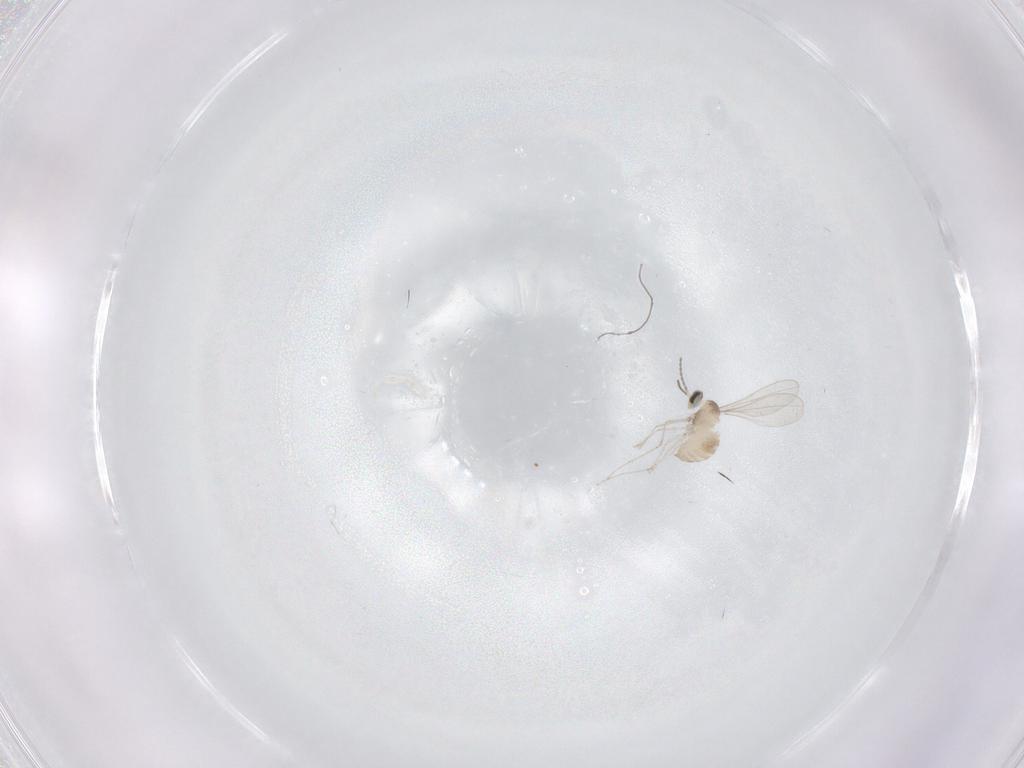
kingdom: Animalia
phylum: Arthropoda
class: Insecta
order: Diptera
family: Cecidomyiidae
